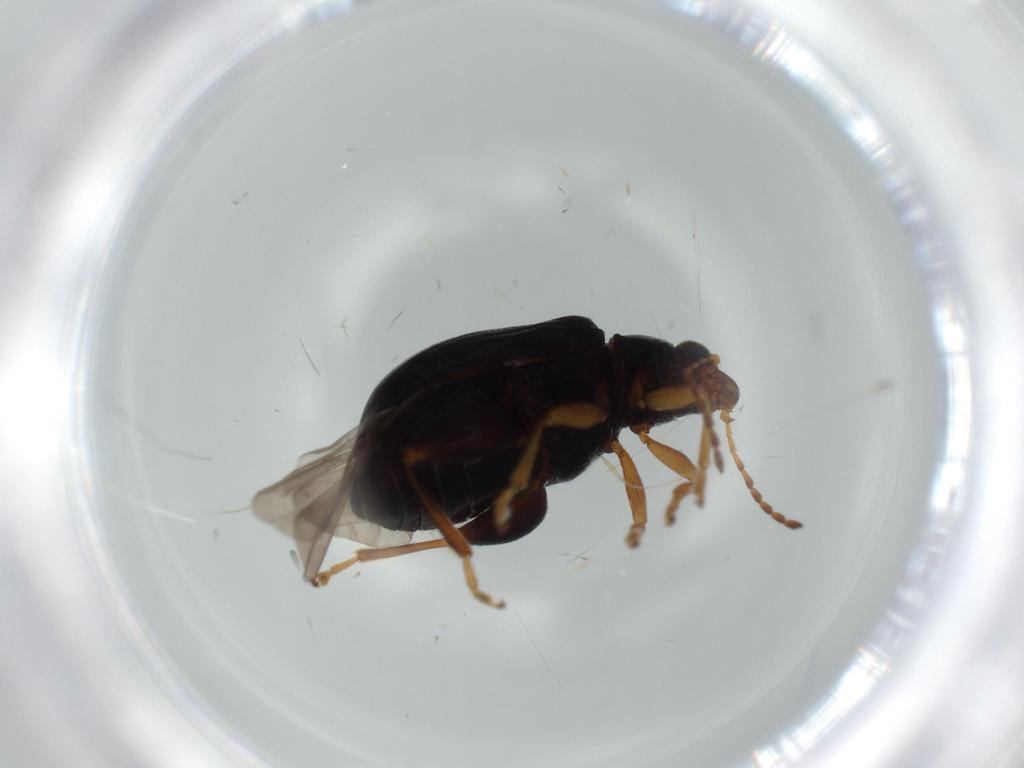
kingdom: Animalia
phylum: Arthropoda
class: Insecta
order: Coleoptera
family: Chrysomelidae
